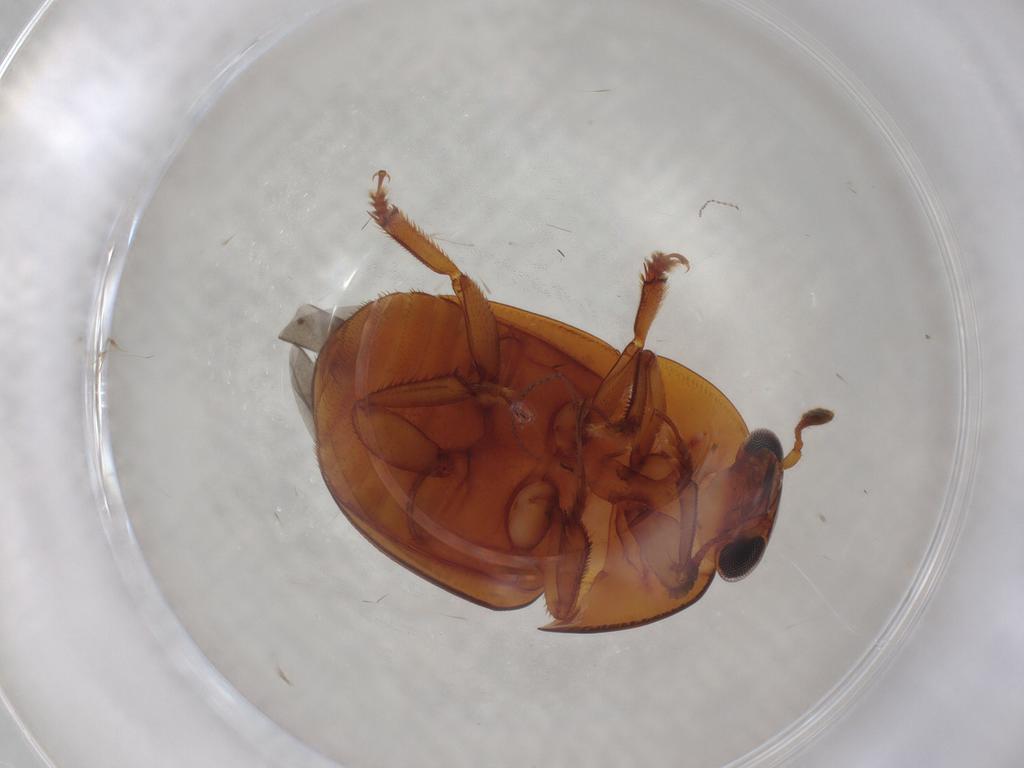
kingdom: Animalia
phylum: Arthropoda
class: Insecta
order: Coleoptera
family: Nitidulidae
